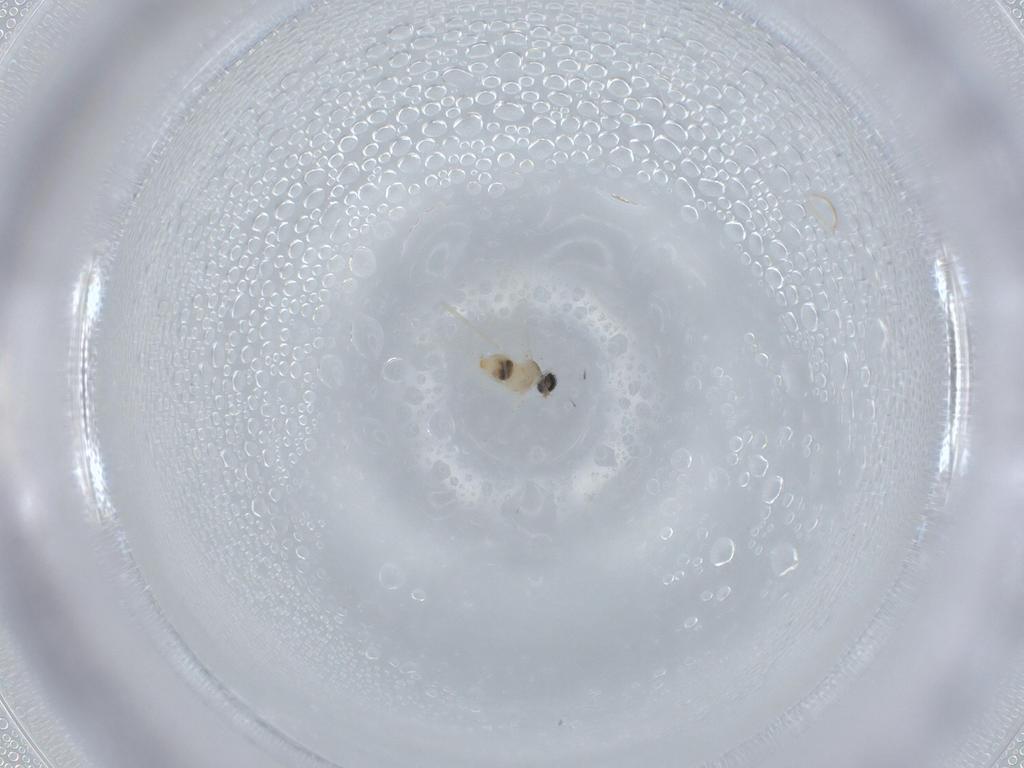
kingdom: Animalia
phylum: Arthropoda
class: Insecta
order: Diptera
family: Cecidomyiidae
